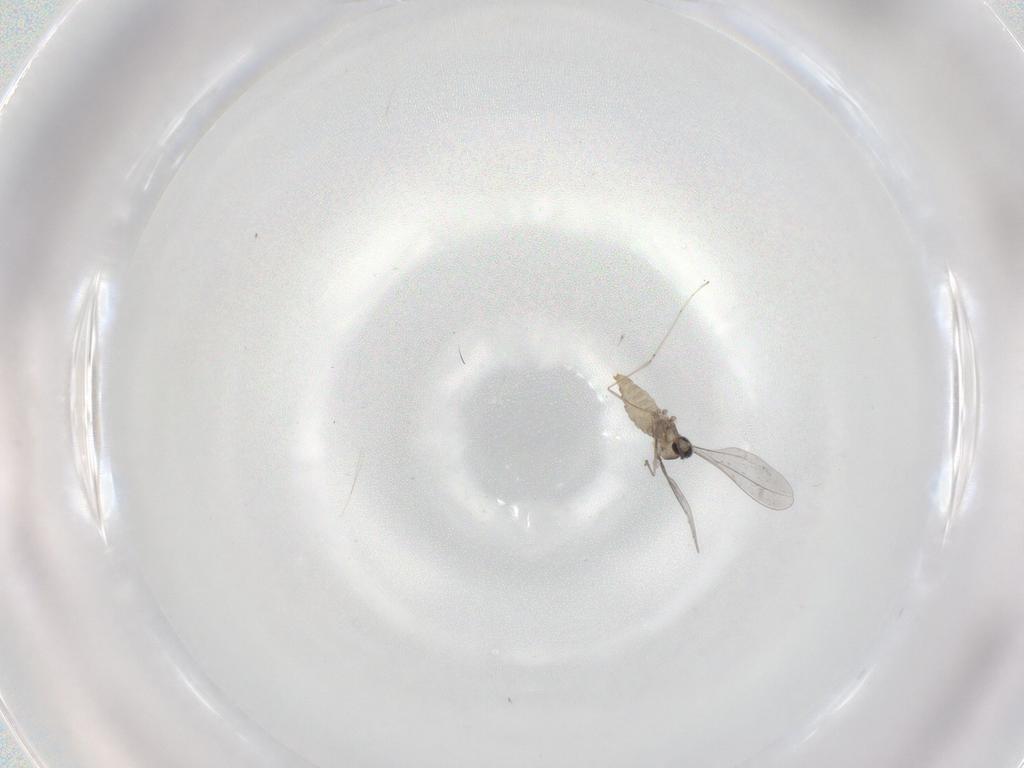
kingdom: Animalia
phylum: Arthropoda
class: Insecta
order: Diptera
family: Cecidomyiidae
